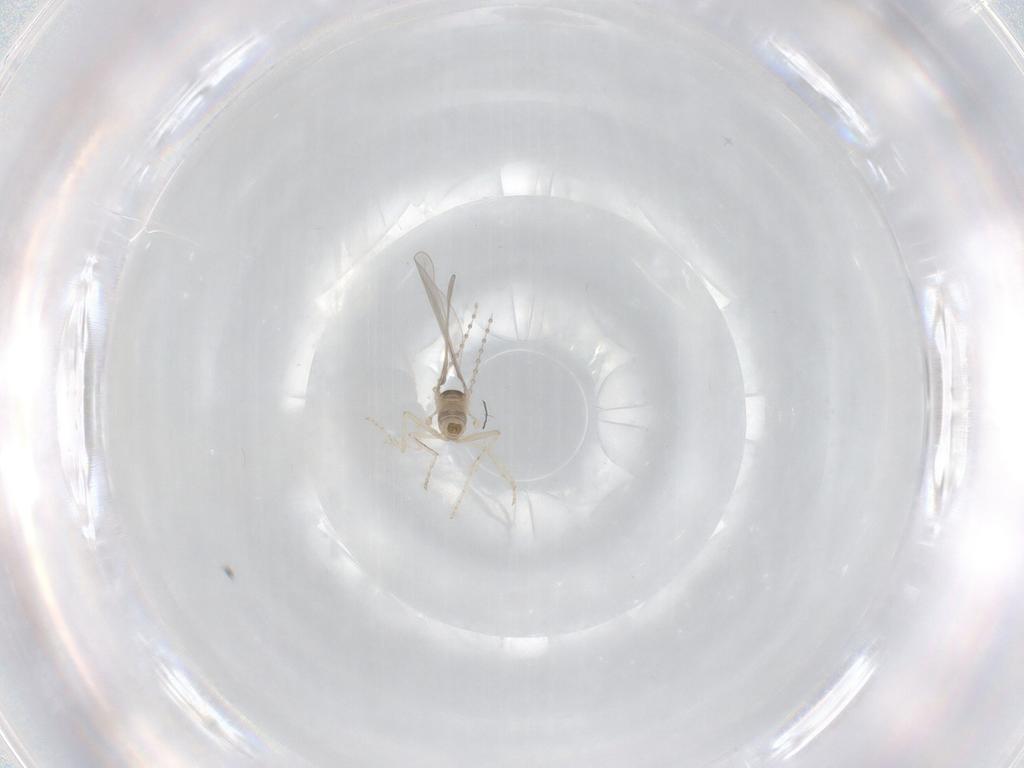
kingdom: Animalia
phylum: Arthropoda
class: Insecta
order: Diptera
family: Cecidomyiidae
